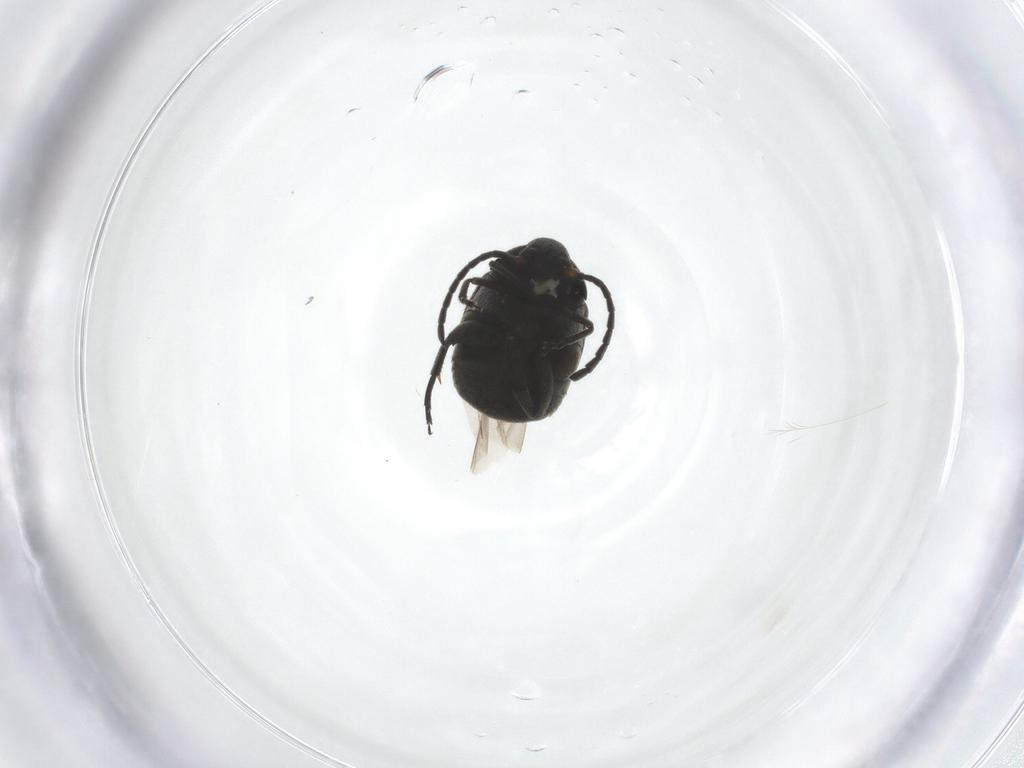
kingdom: Animalia
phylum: Arthropoda
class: Insecta
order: Coleoptera
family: Chrysomelidae
